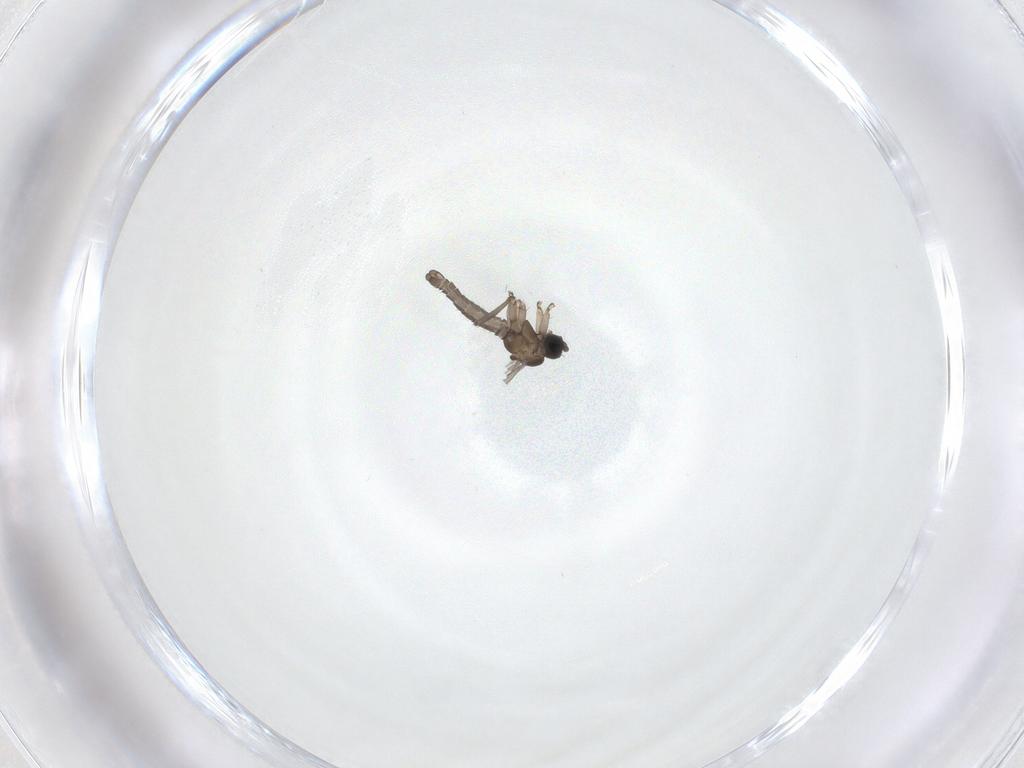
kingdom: Animalia
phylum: Arthropoda
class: Insecta
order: Diptera
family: Sciaridae
